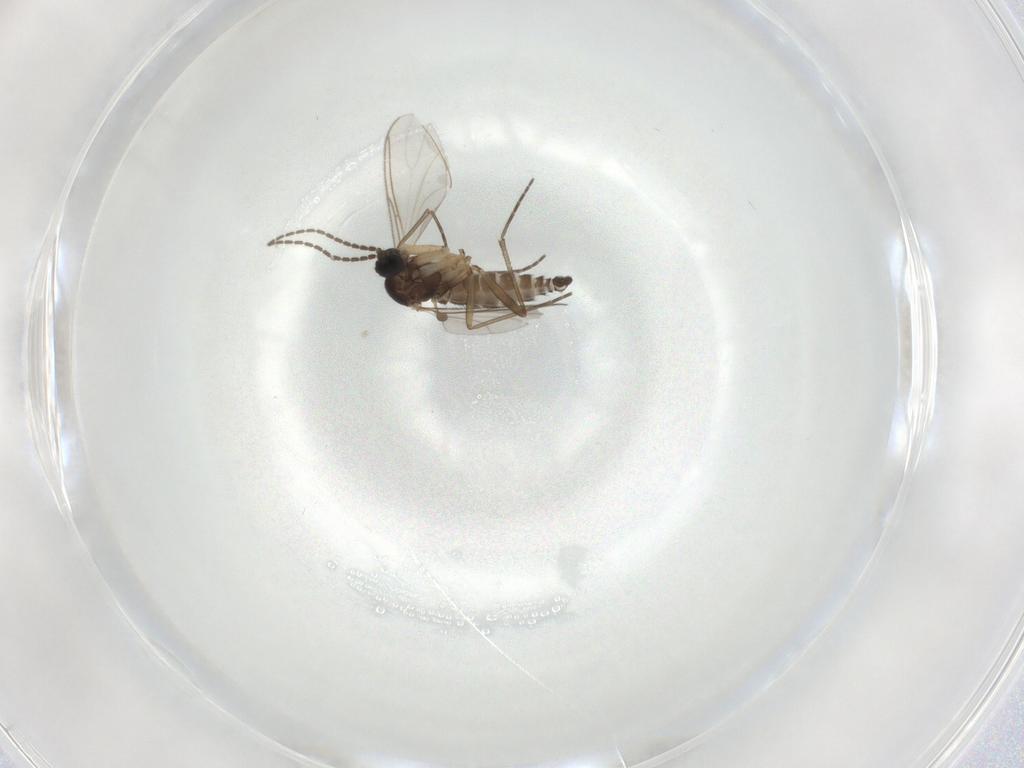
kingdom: Animalia
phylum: Arthropoda
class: Insecta
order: Diptera
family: Sciaridae
